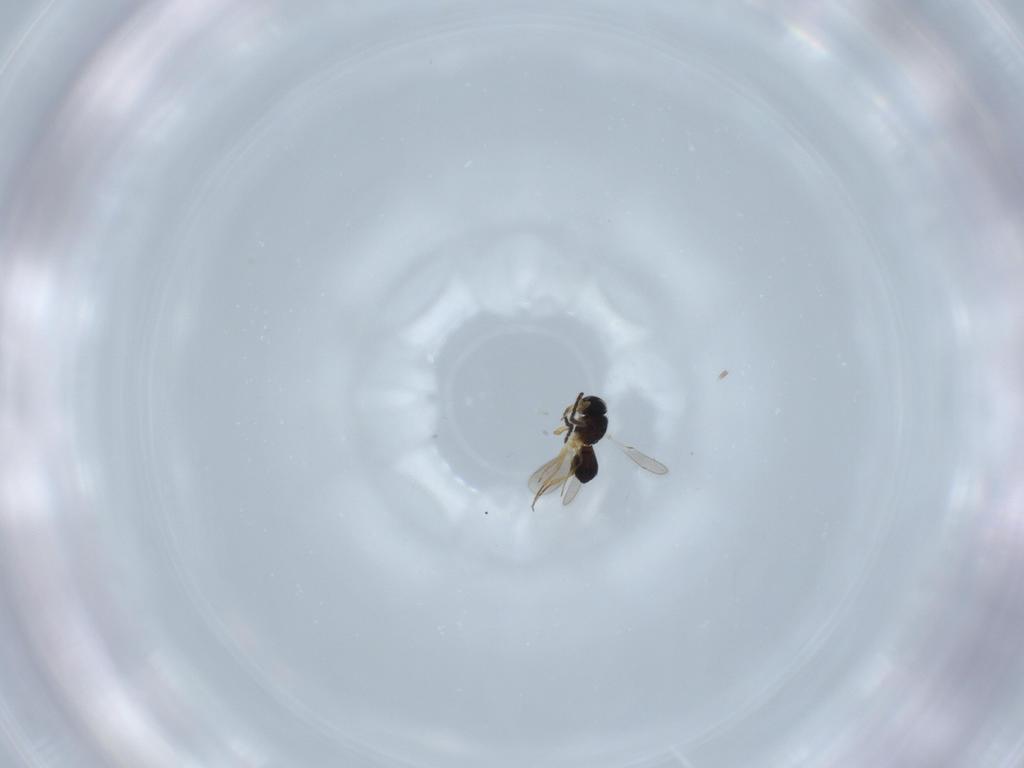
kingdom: Animalia
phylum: Arthropoda
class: Insecta
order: Hymenoptera
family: Scelionidae
